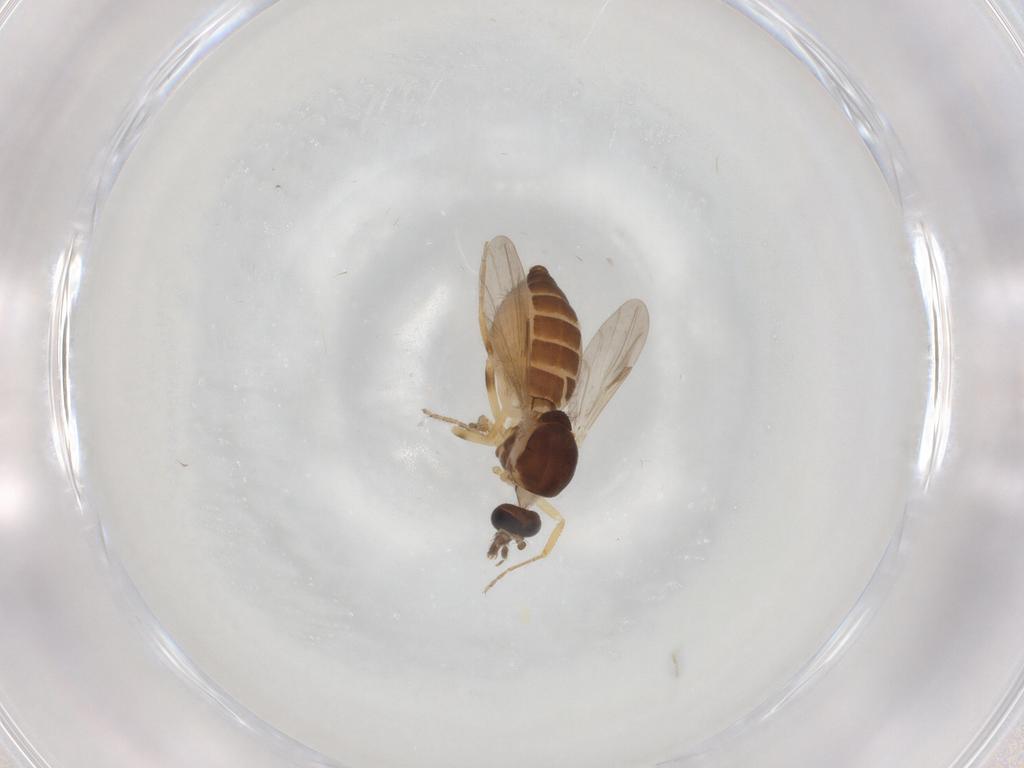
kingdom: Animalia
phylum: Arthropoda
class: Insecta
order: Diptera
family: Ceratopogonidae
